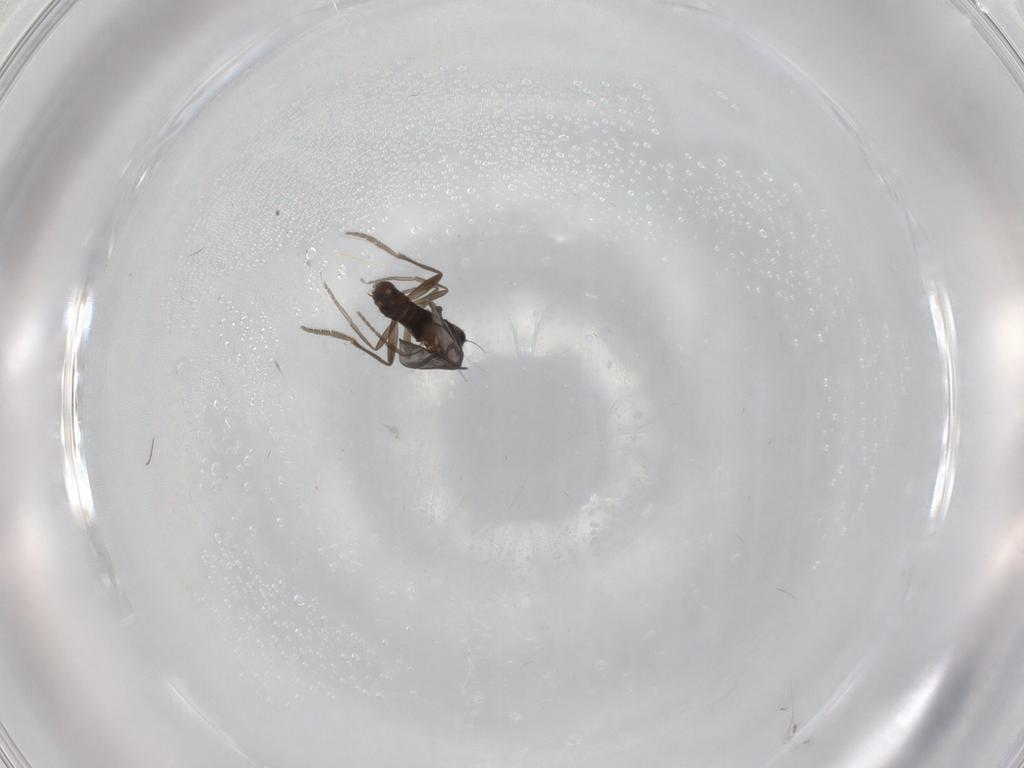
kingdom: Animalia
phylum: Arthropoda
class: Insecta
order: Diptera
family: Phoridae
